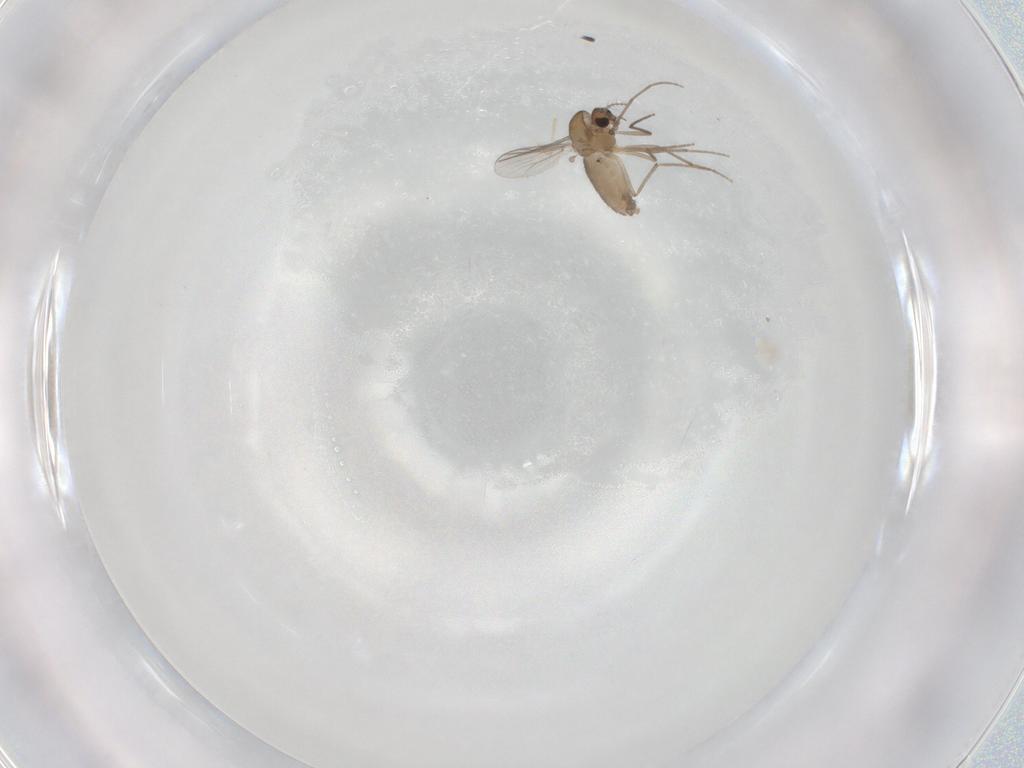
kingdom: Animalia
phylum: Arthropoda
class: Insecta
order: Diptera
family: Chironomidae
